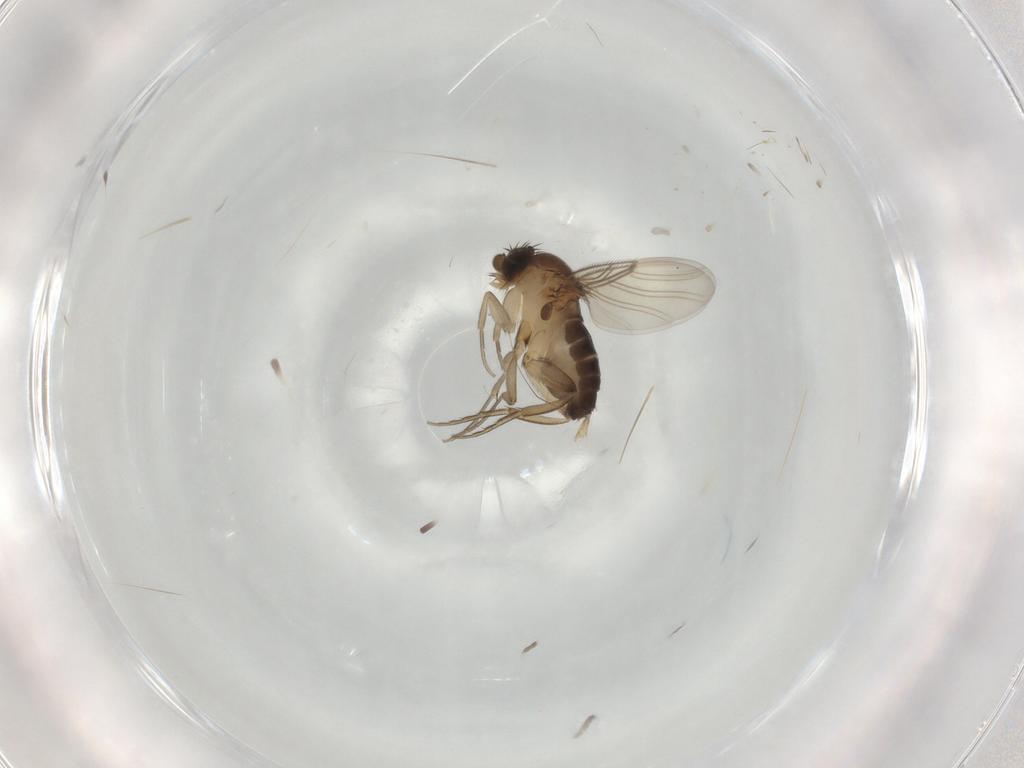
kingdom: Animalia
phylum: Arthropoda
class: Insecta
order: Diptera
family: Phoridae
